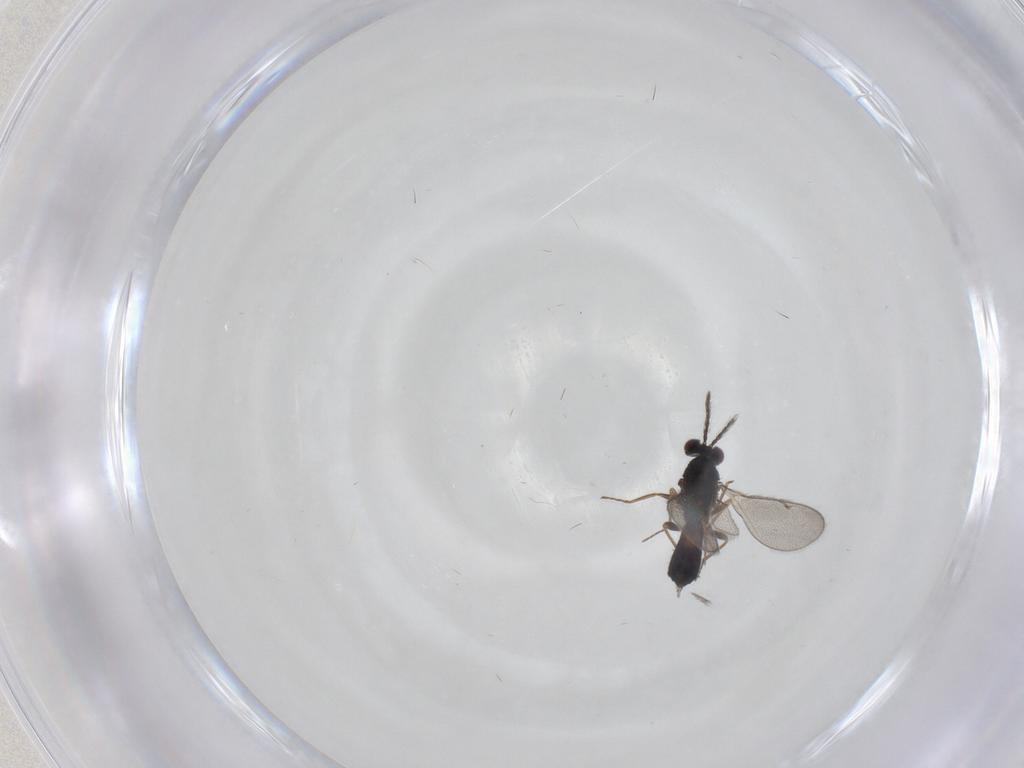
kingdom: Animalia
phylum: Arthropoda
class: Insecta
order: Hymenoptera
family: Eulophidae
